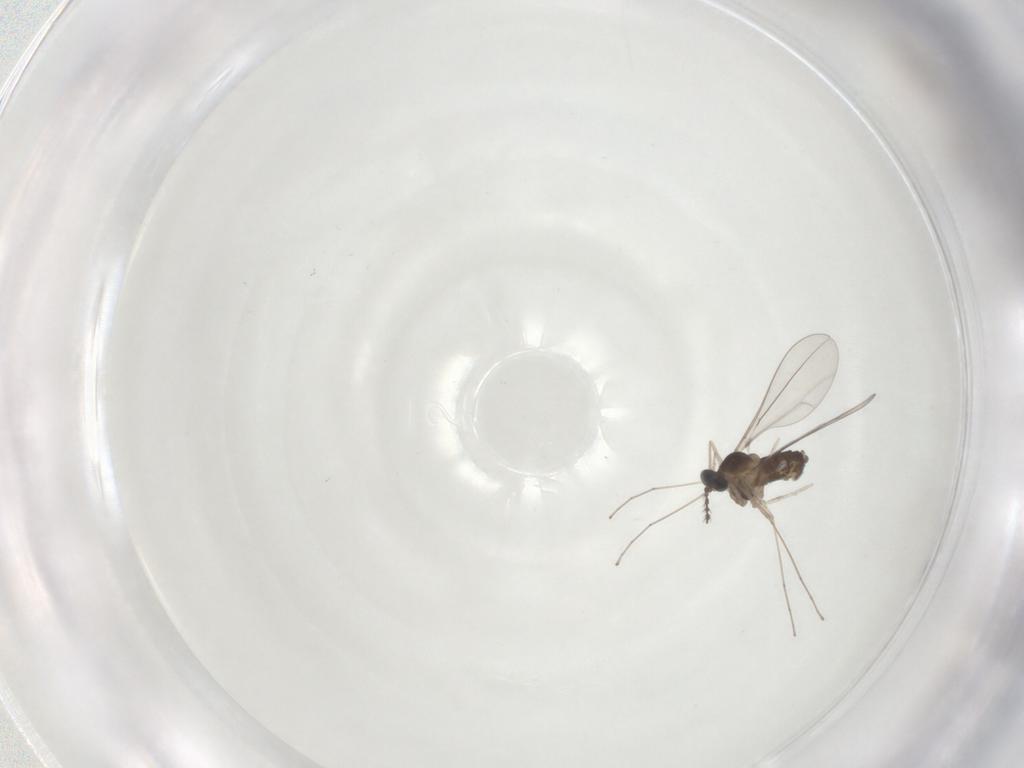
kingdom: Animalia
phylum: Arthropoda
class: Insecta
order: Diptera
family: Cecidomyiidae
